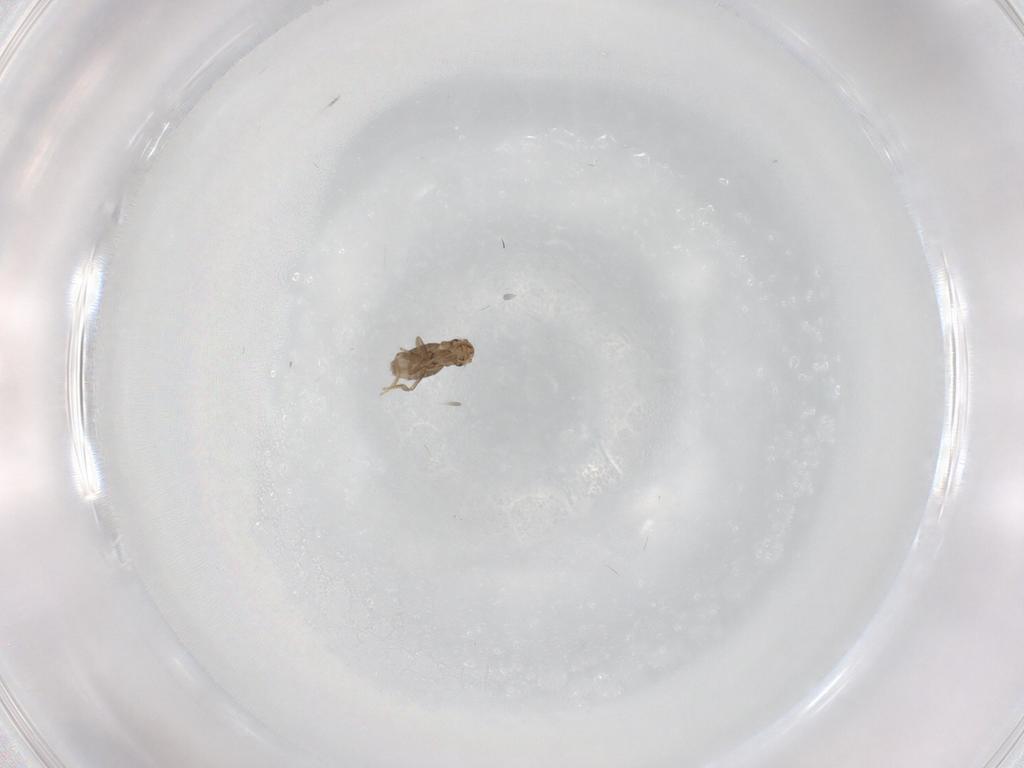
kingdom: Animalia
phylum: Arthropoda
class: Insecta
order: Diptera
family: Phoridae
